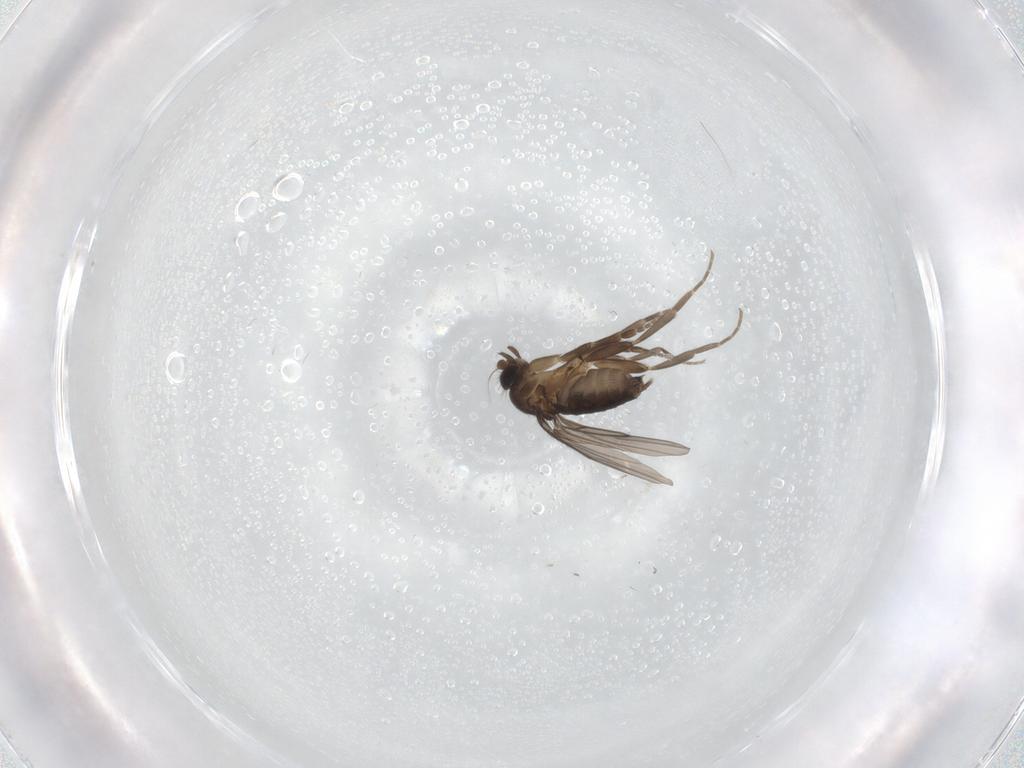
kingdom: Animalia
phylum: Arthropoda
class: Insecta
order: Diptera
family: Phoridae
